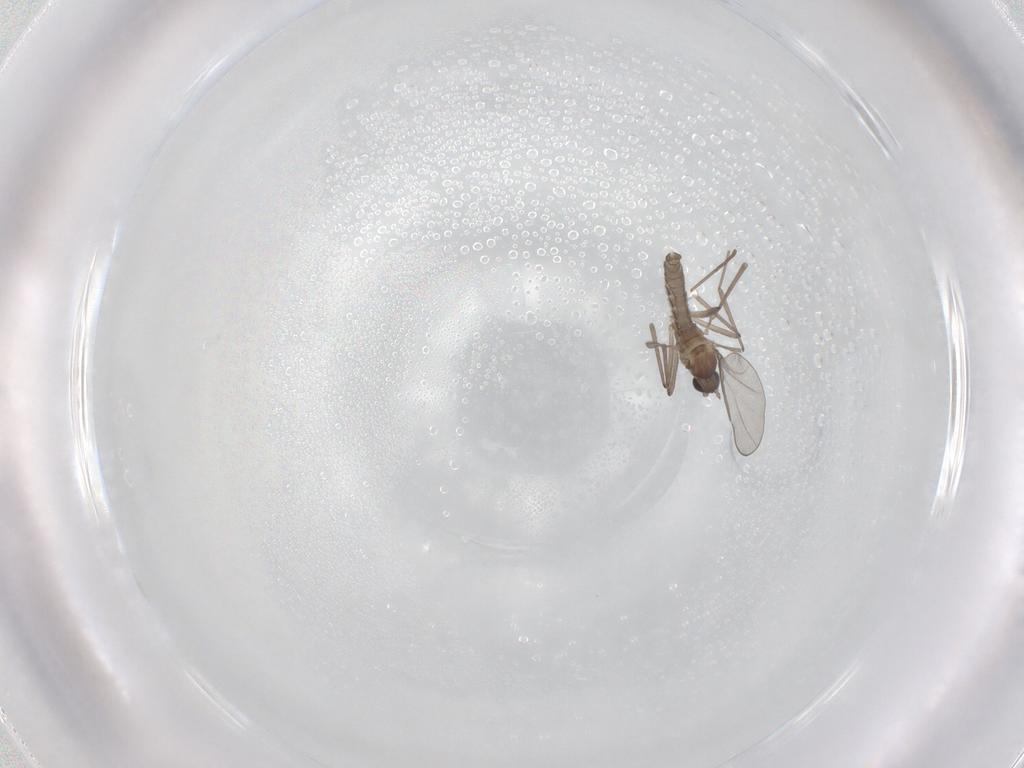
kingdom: Animalia
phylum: Arthropoda
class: Insecta
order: Diptera
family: Cecidomyiidae
